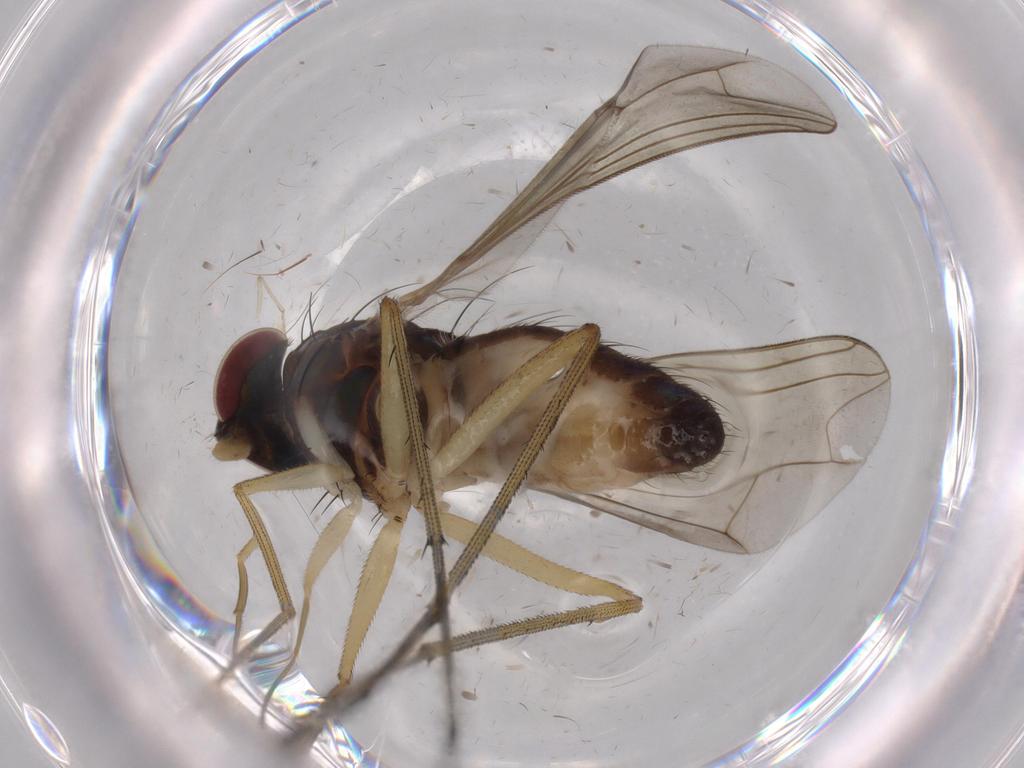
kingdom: Animalia
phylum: Arthropoda
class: Insecta
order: Diptera
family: Dolichopodidae
